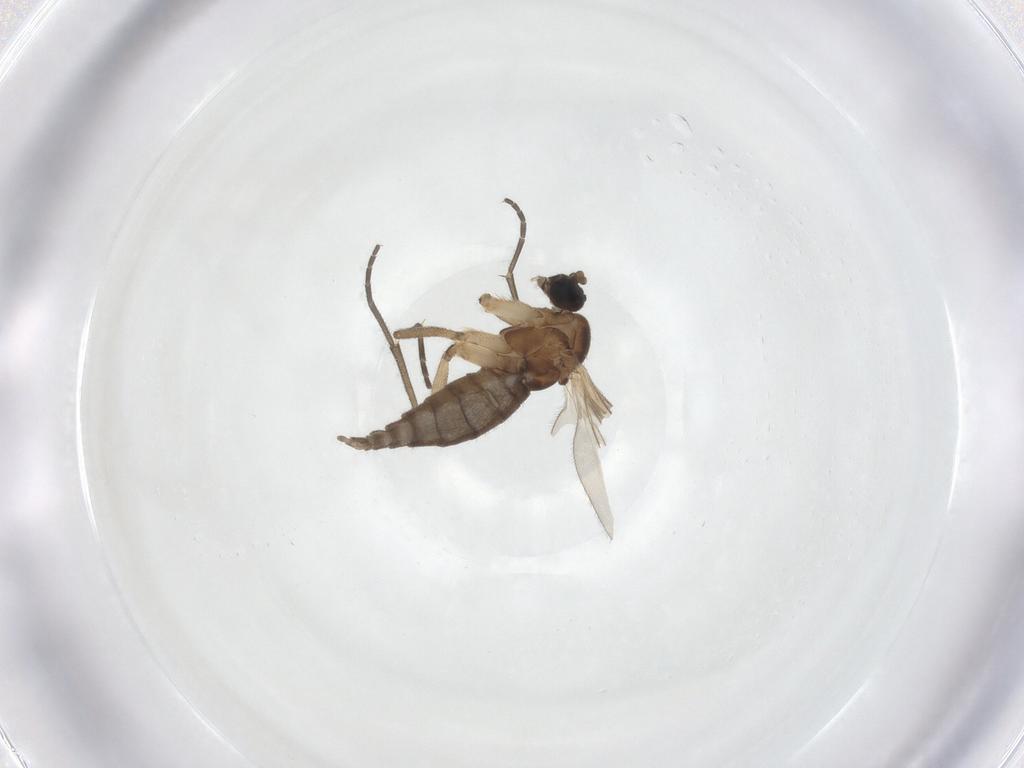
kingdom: Animalia
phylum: Arthropoda
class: Insecta
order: Diptera
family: Sciaridae
